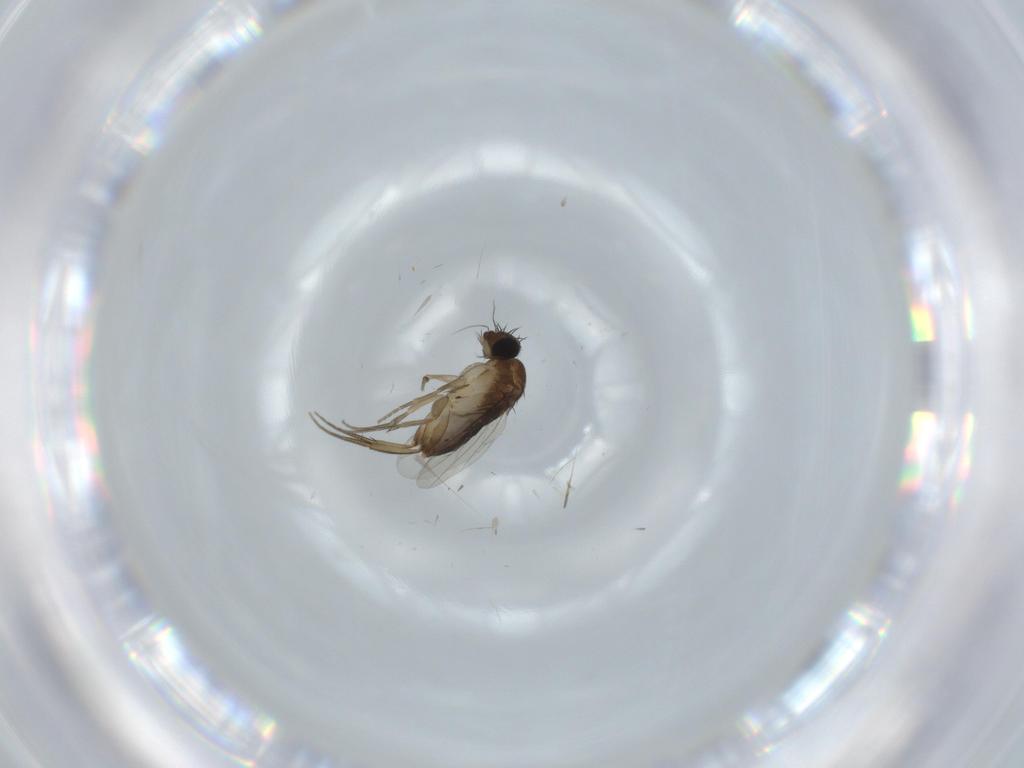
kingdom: Animalia
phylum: Arthropoda
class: Insecta
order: Diptera
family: Phoridae
